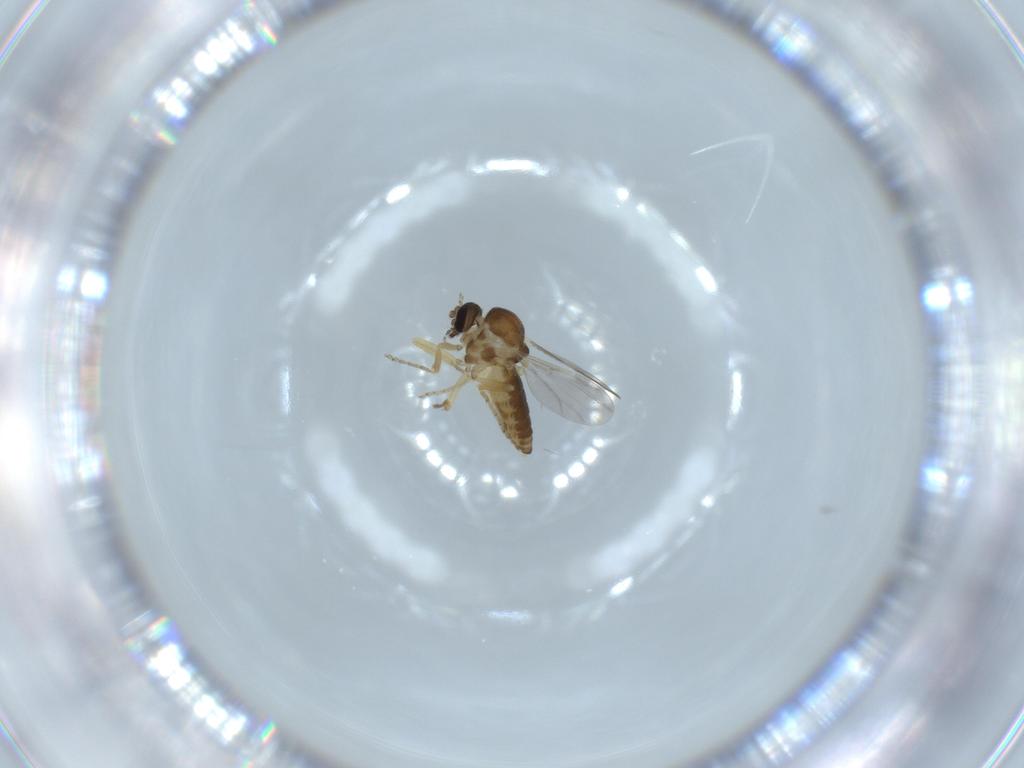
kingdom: Animalia
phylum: Arthropoda
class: Insecta
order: Diptera
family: Ceratopogonidae
